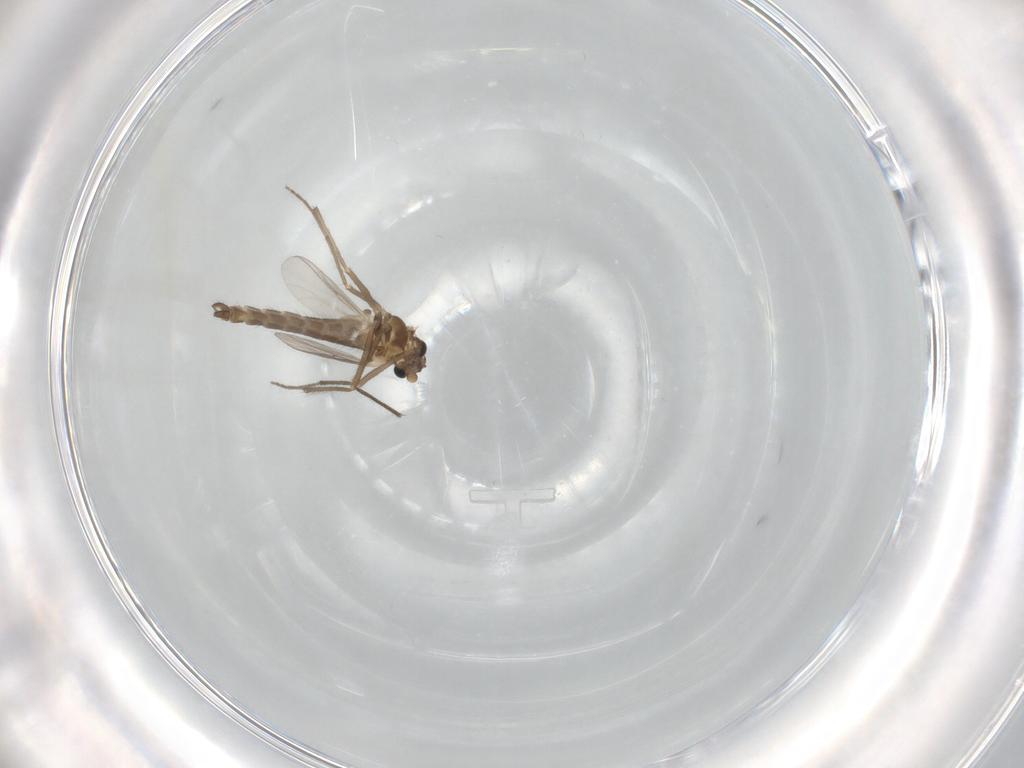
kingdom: Animalia
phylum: Arthropoda
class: Insecta
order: Diptera
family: Chironomidae
